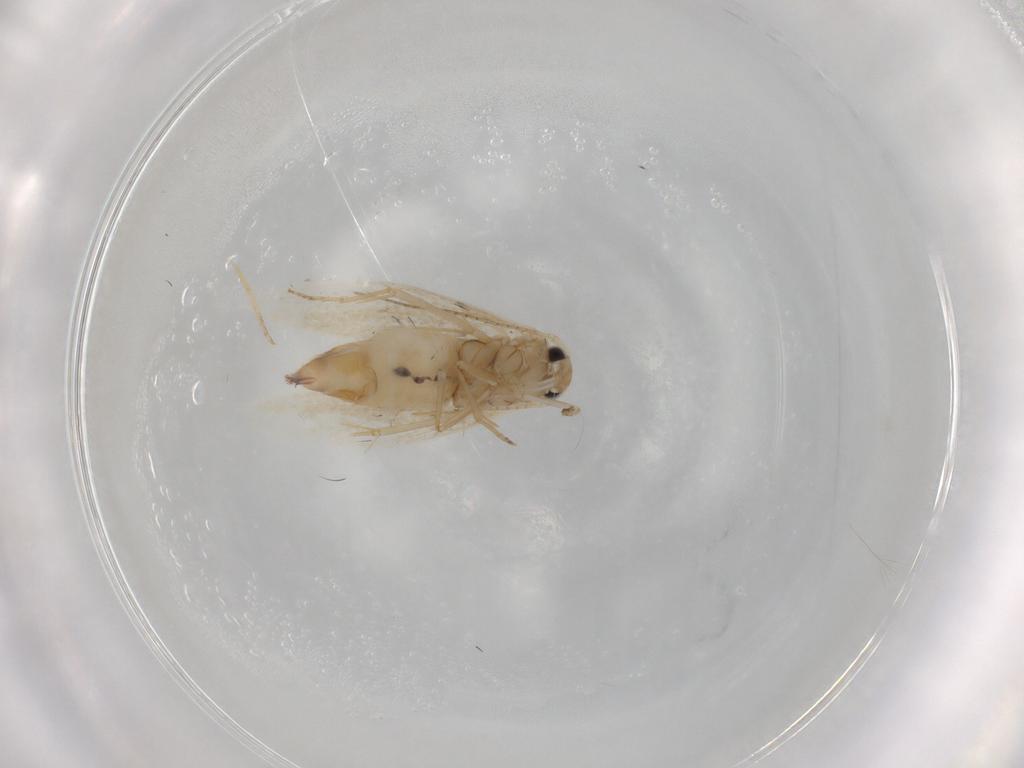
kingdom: Animalia
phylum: Arthropoda
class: Insecta
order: Lepidoptera
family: Bucculatricidae
